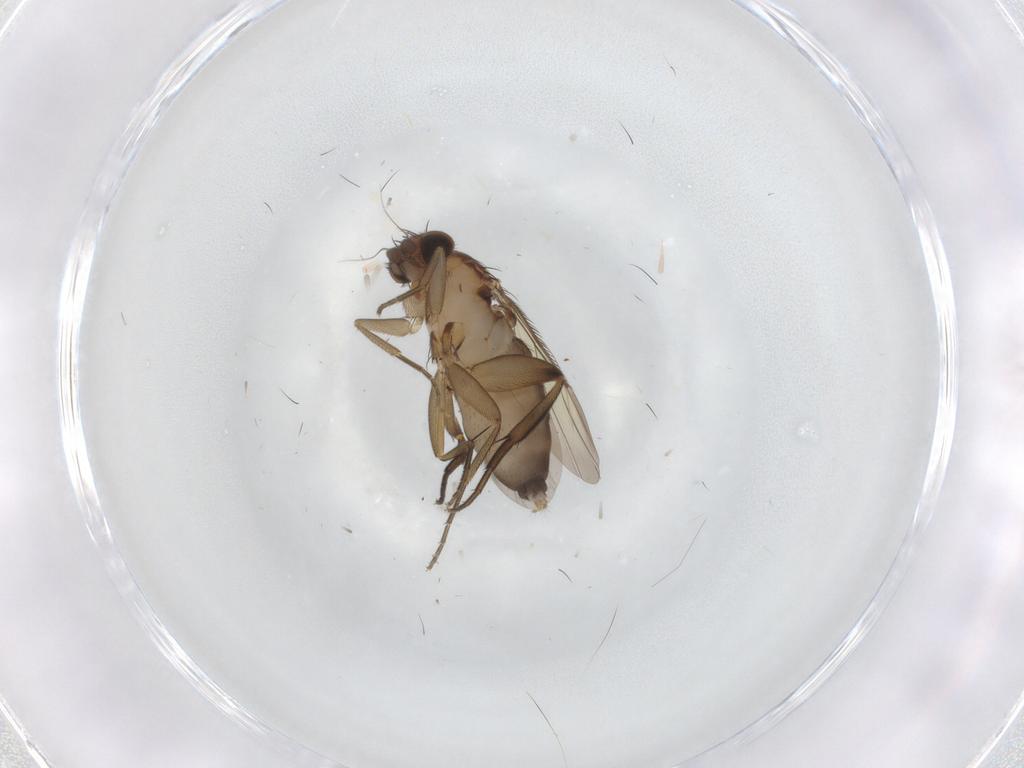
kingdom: Animalia
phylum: Arthropoda
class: Insecta
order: Diptera
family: Phoridae
